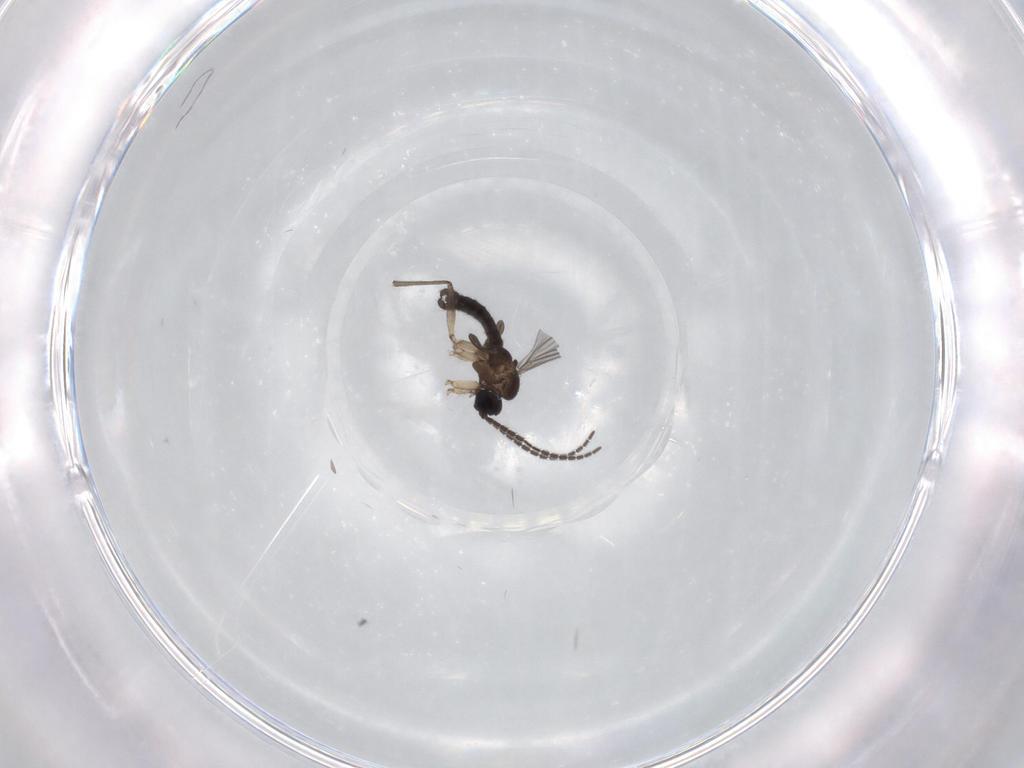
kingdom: Animalia
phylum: Arthropoda
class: Insecta
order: Diptera
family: Sciaridae
